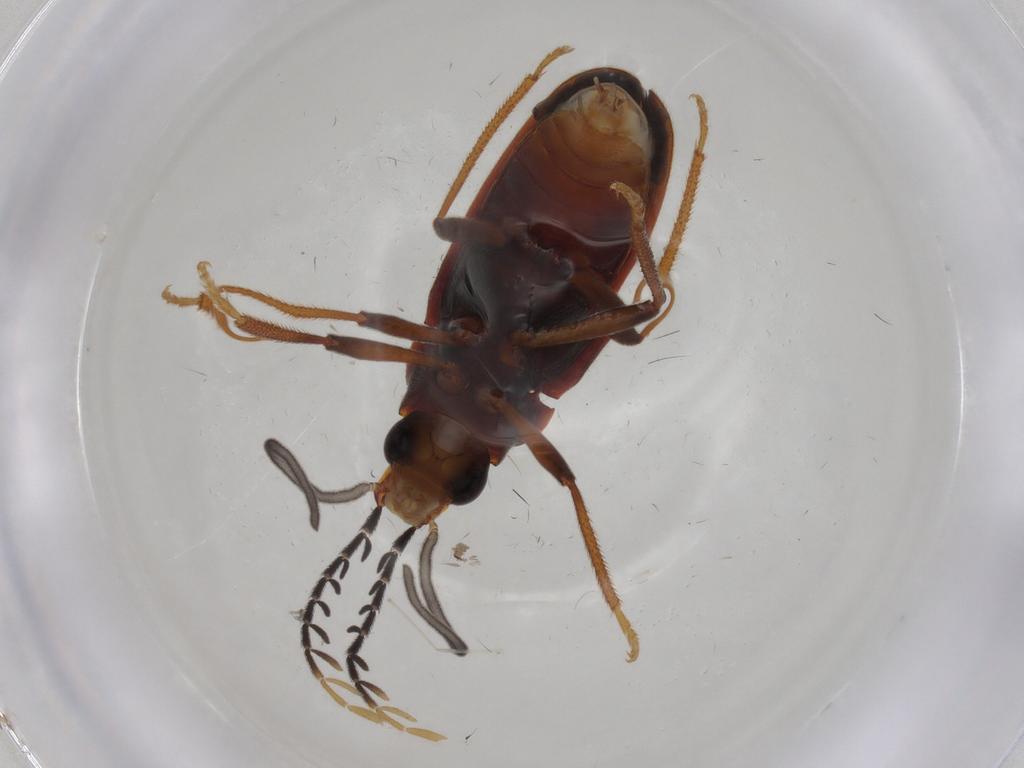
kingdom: Animalia
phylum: Arthropoda
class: Insecta
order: Coleoptera
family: Ptilodactylidae
